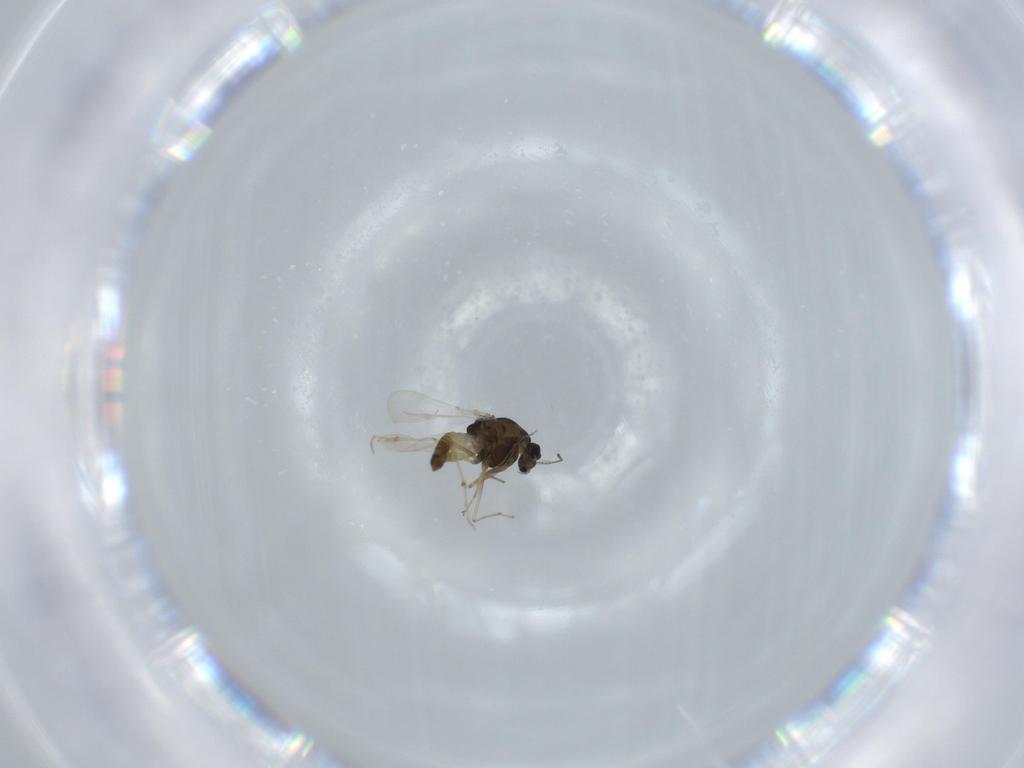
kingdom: Animalia
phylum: Arthropoda
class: Insecta
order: Diptera
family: Chironomidae
